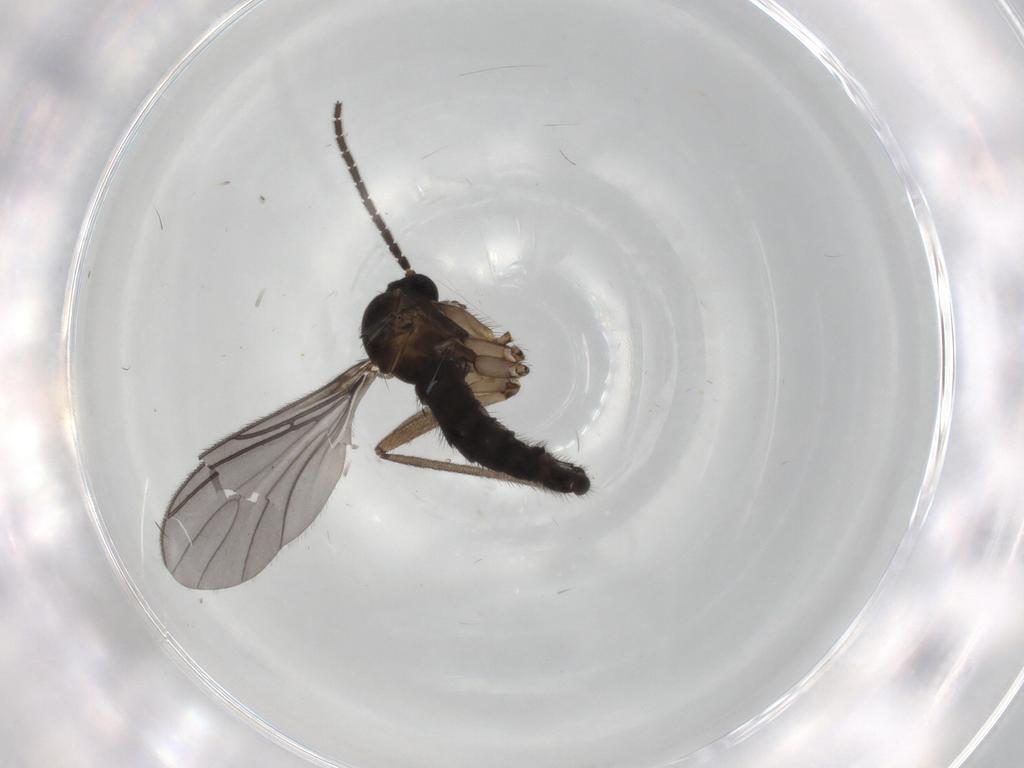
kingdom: Animalia
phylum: Arthropoda
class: Insecta
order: Diptera
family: Sciaridae
